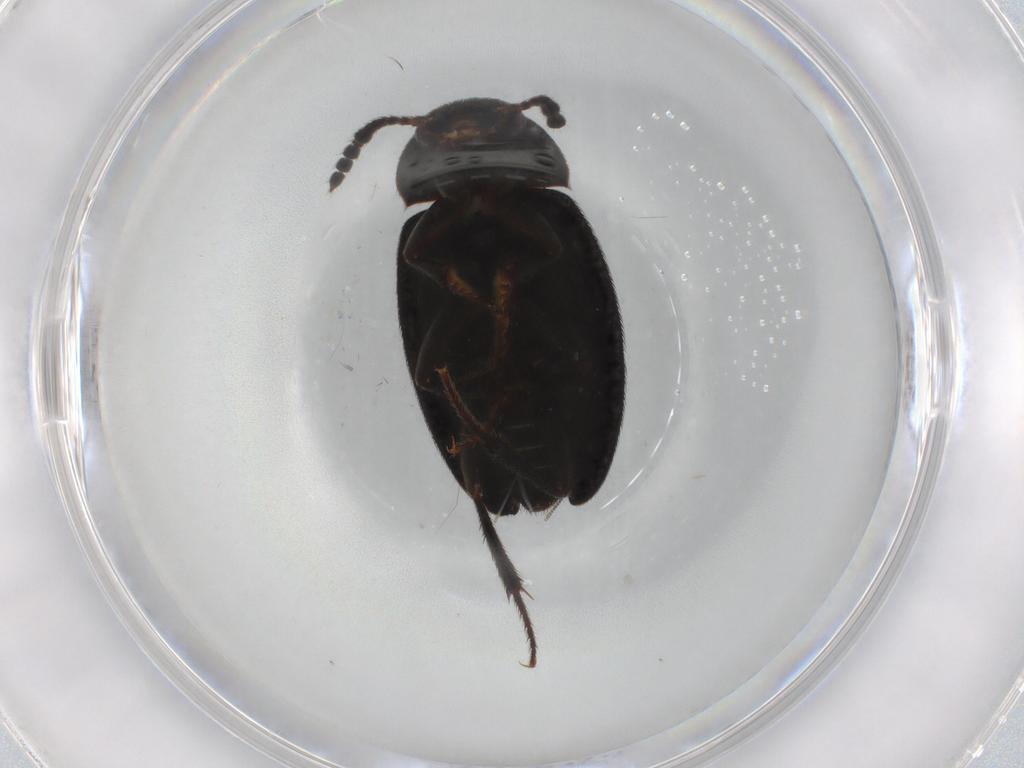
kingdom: Animalia
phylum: Arthropoda
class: Insecta
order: Coleoptera
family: Leiodidae
